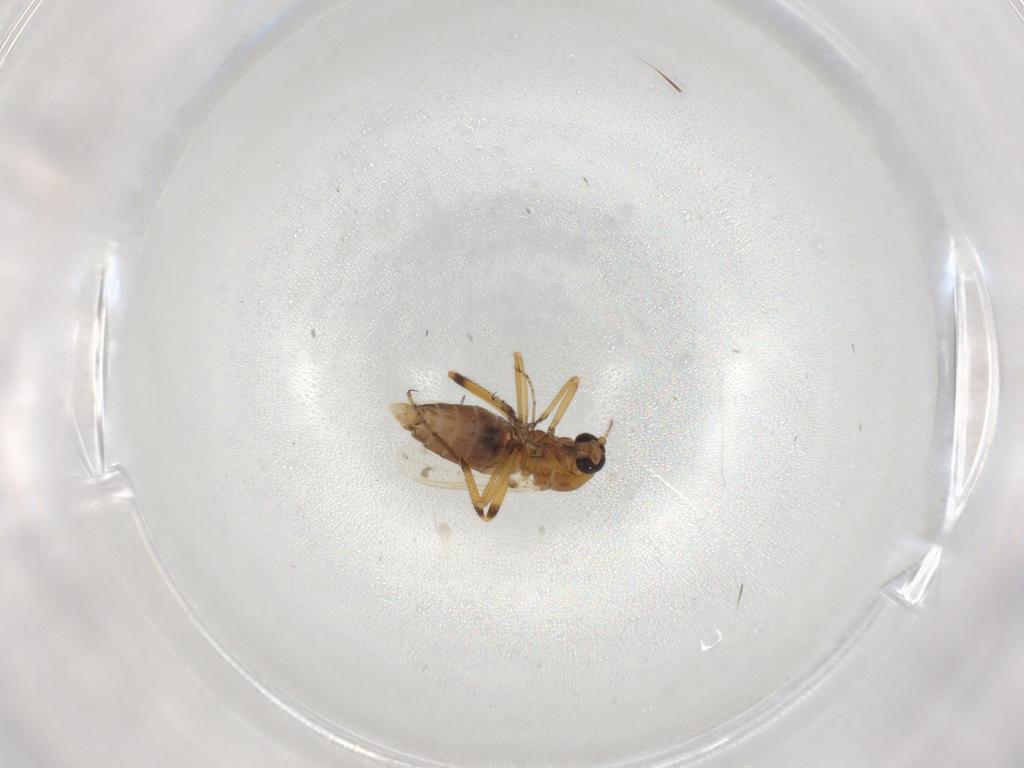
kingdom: Animalia
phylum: Arthropoda
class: Insecta
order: Diptera
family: Ceratopogonidae
